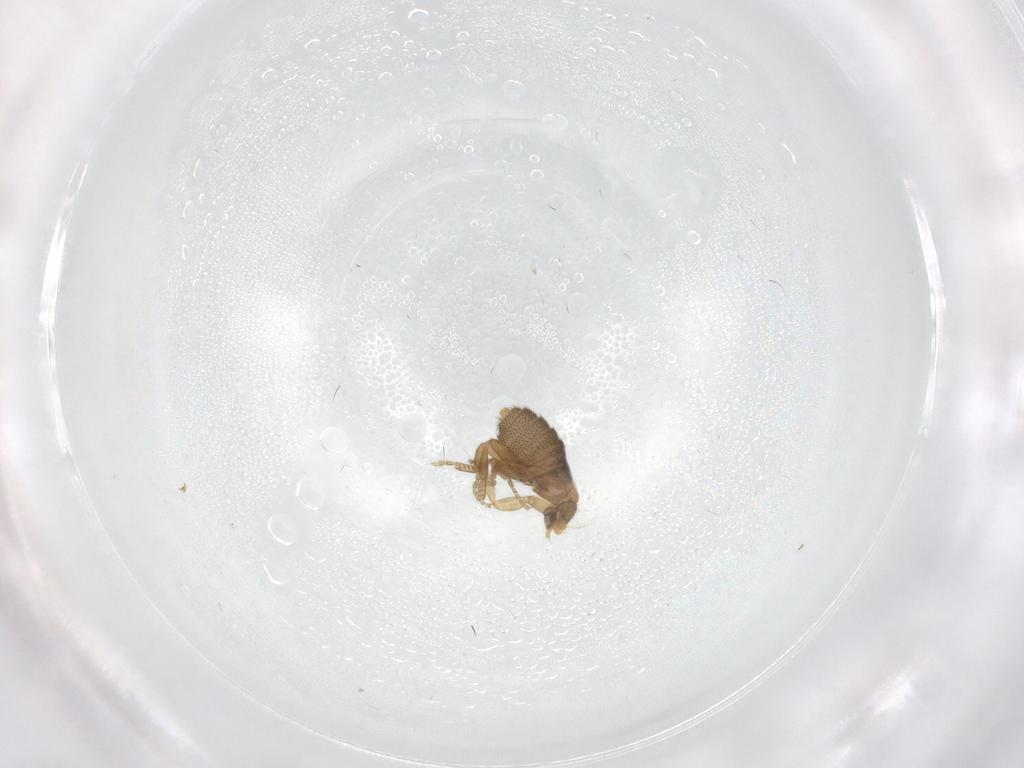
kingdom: Animalia
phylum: Arthropoda
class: Insecta
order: Diptera
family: Phoridae
